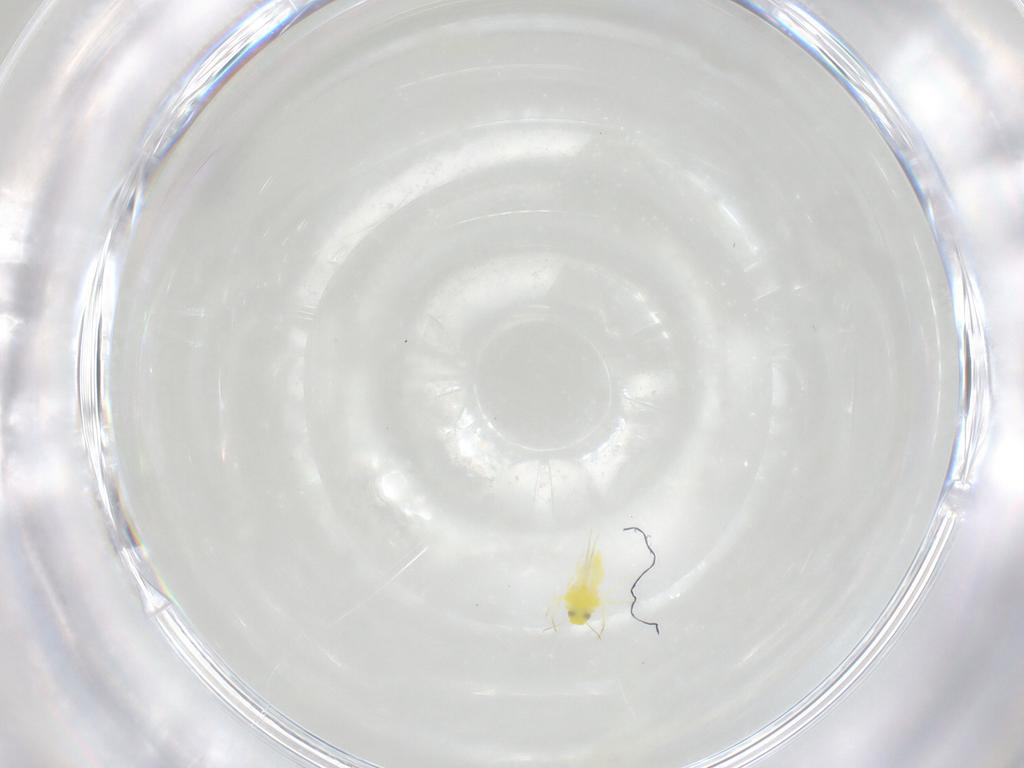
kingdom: Animalia
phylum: Arthropoda
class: Insecta
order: Hemiptera
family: Aleyrodidae
